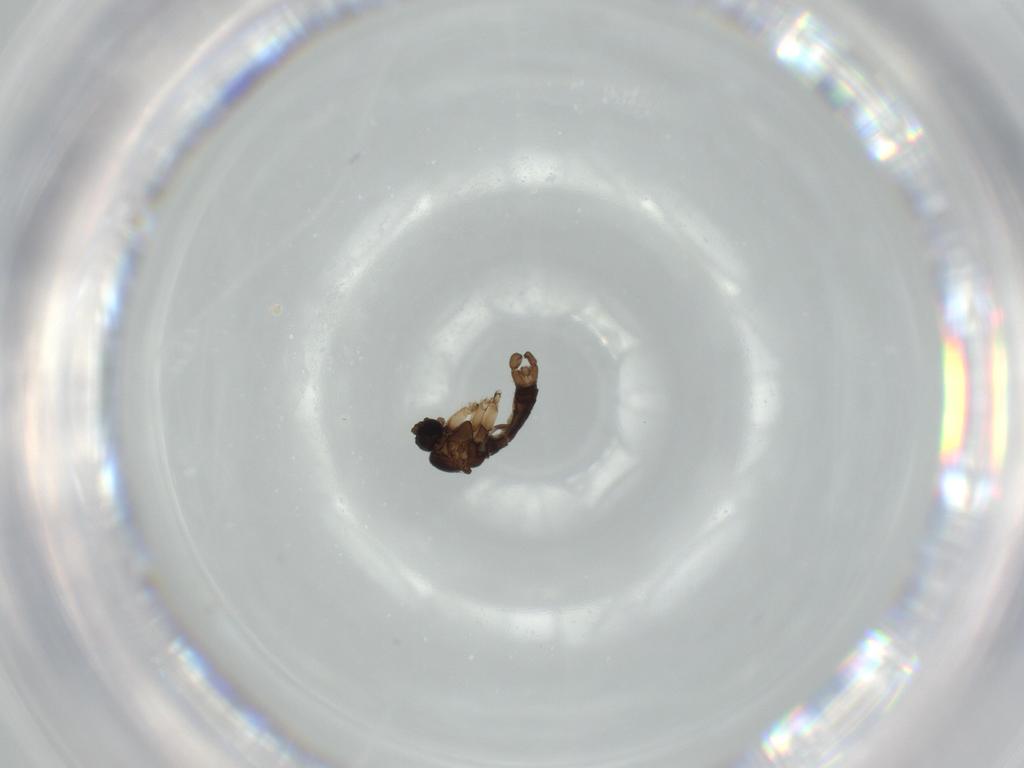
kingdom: Animalia
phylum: Arthropoda
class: Insecta
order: Diptera
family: Sciaridae
